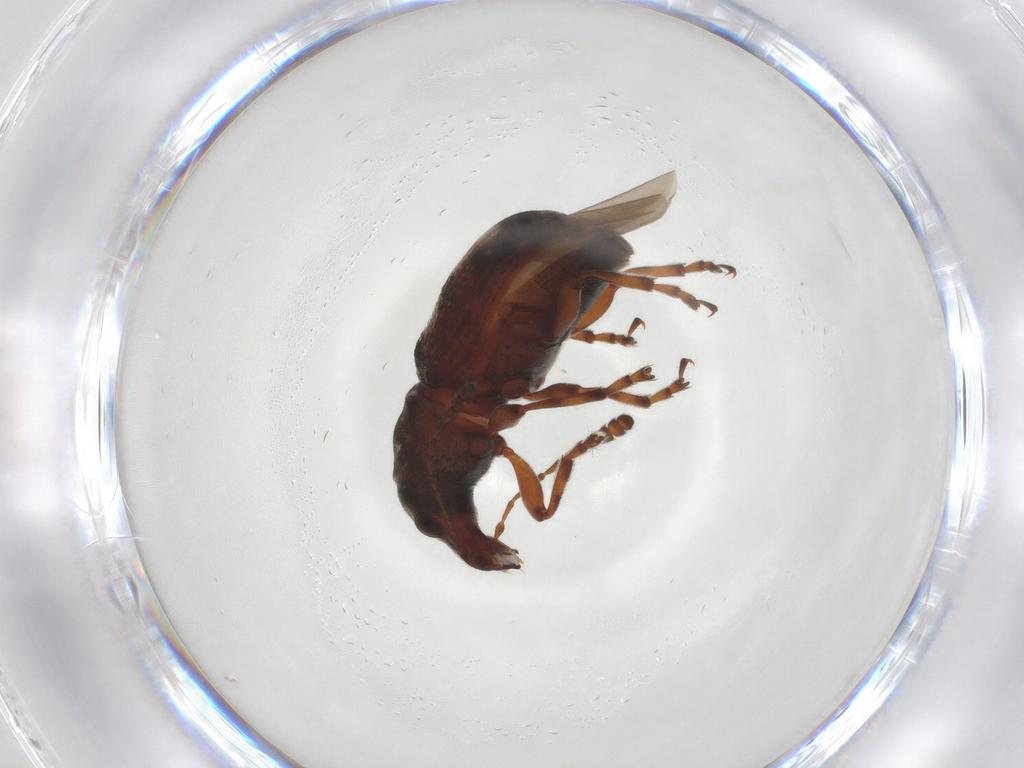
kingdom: Animalia
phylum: Arthropoda
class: Insecta
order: Coleoptera
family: Anthribidae
